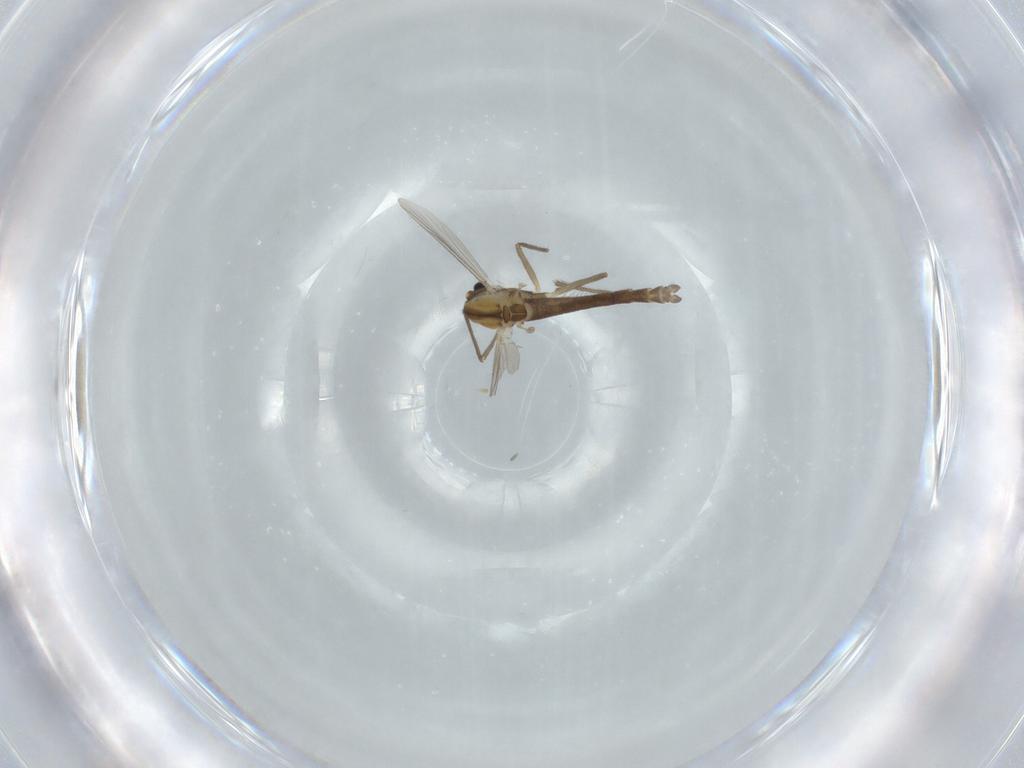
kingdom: Animalia
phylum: Arthropoda
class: Insecta
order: Diptera
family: Chironomidae
